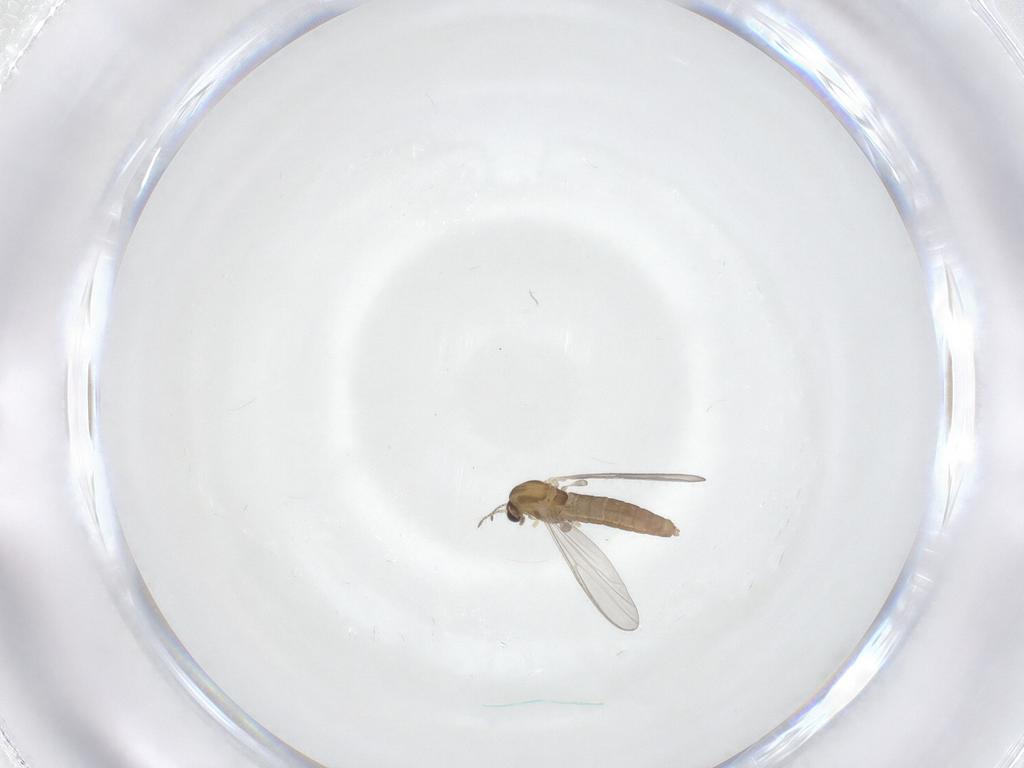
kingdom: Animalia
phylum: Arthropoda
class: Insecta
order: Diptera
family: Chironomidae
